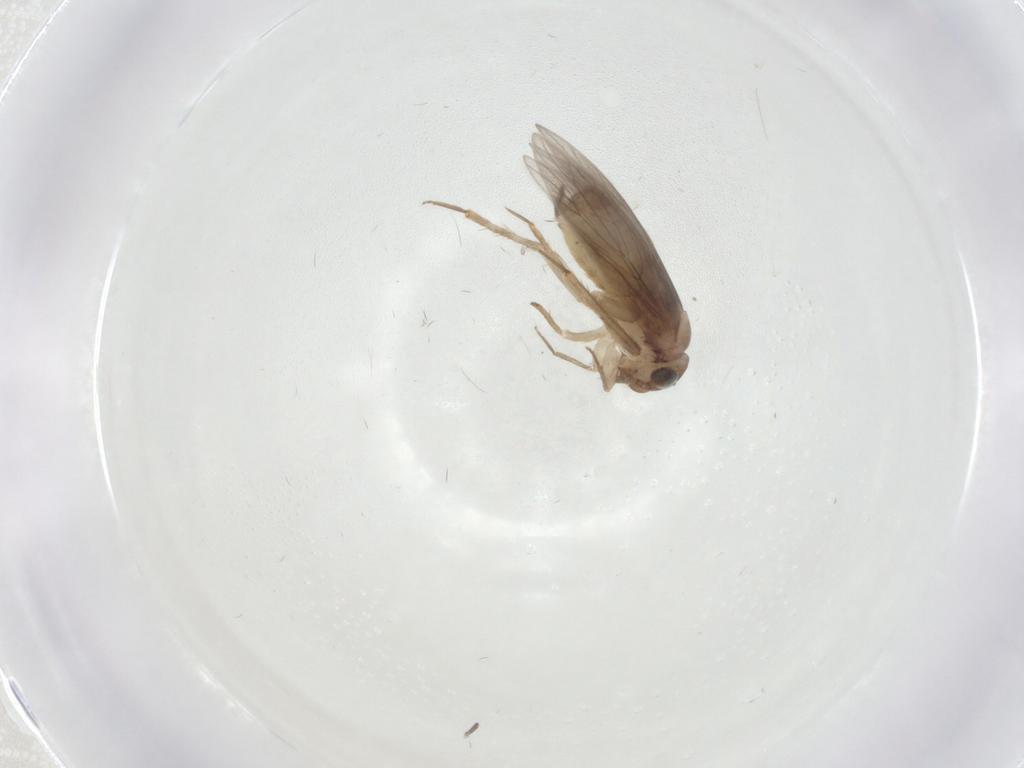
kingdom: Animalia
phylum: Arthropoda
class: Insecta
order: Psocodea
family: Lepidopsocidae
